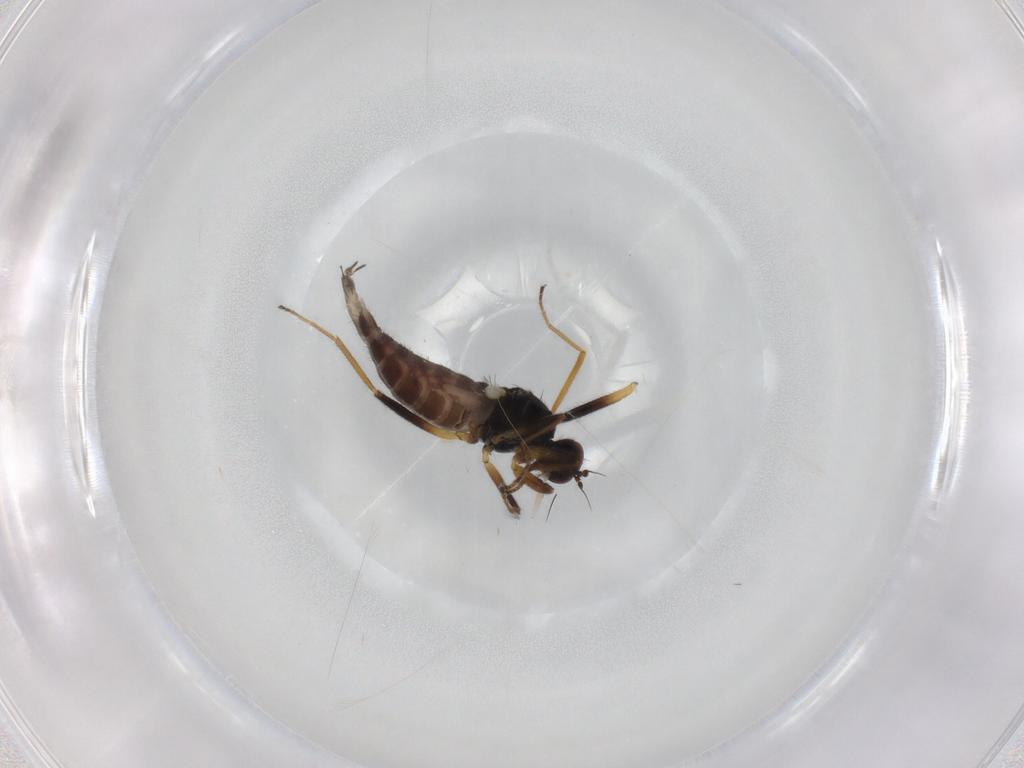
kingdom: Animalia
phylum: Arthropoda
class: Insecta
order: Diptera
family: Hybotidae
